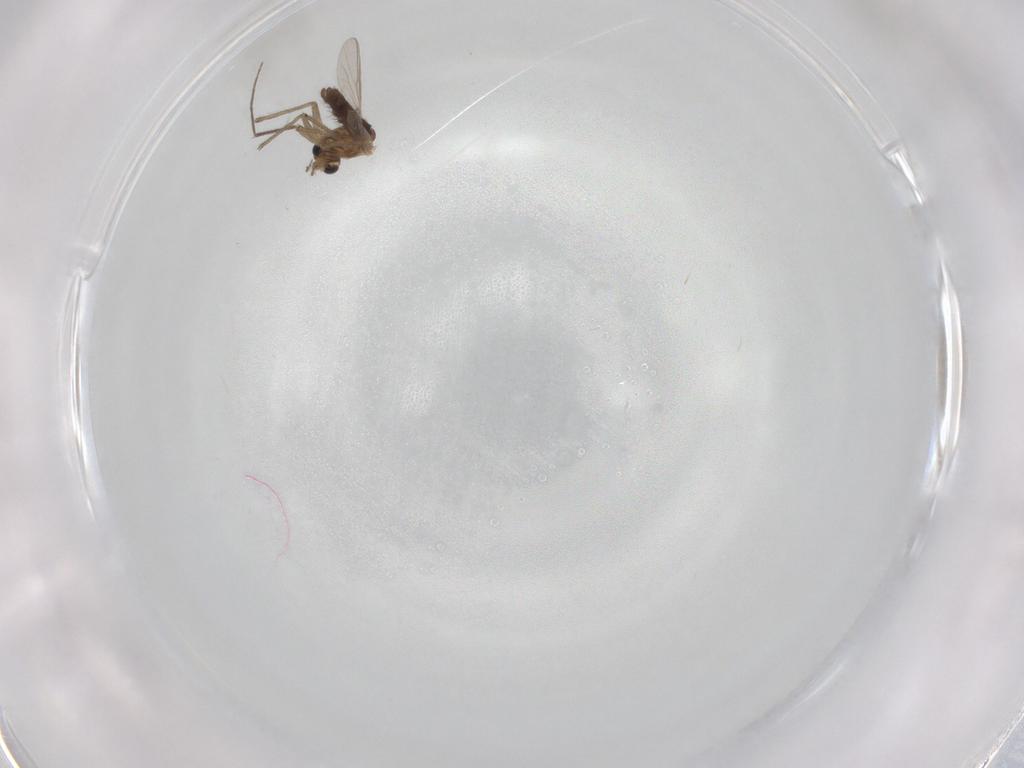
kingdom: Animalia
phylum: Arthropoda
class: Insecta
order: Diptera
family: Chironomidae
